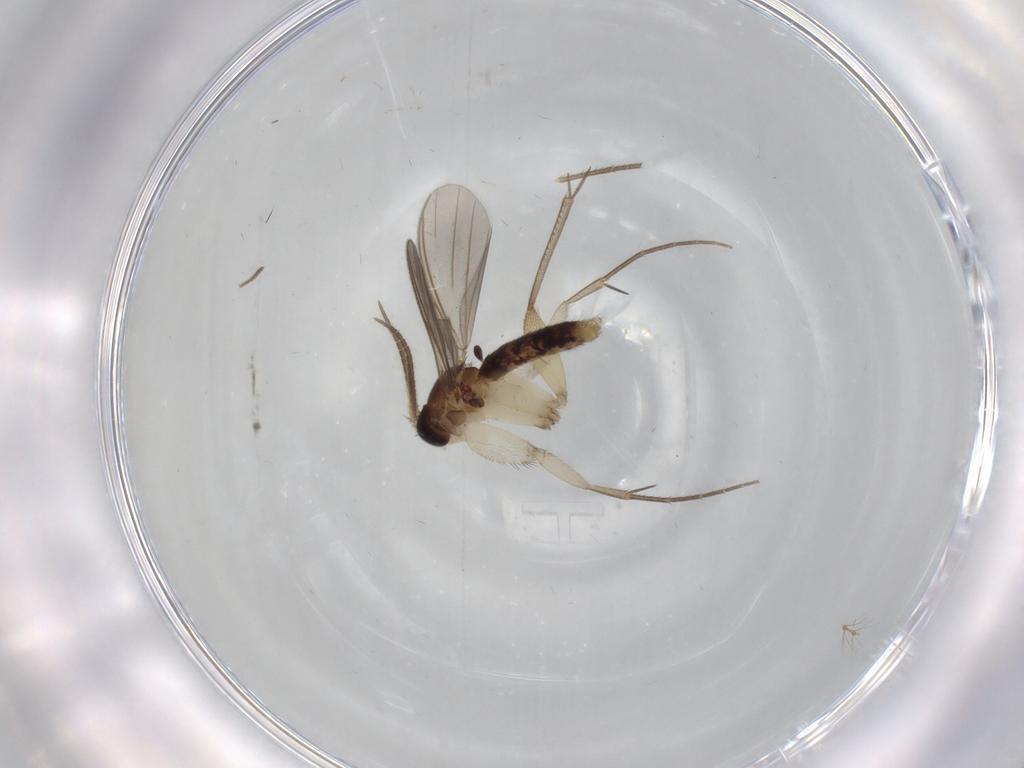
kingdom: Animalia
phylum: Arthropoda
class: Insecta
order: Diptera
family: Mycetophilidae
